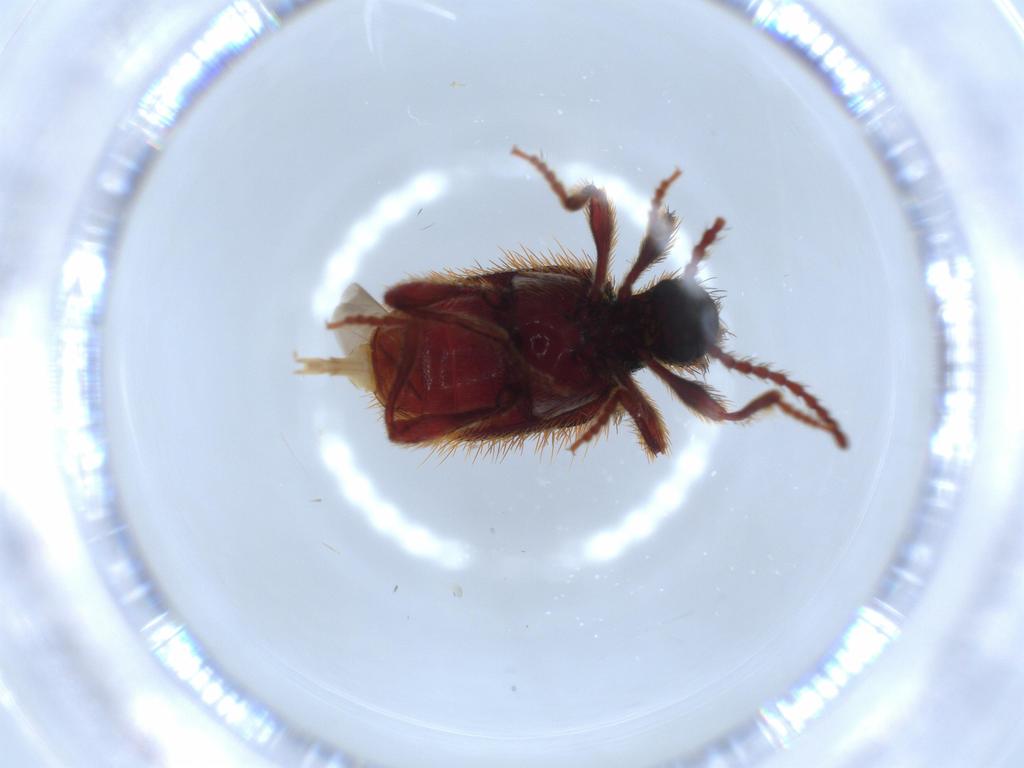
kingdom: Animalia
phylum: Arthropoda
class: Insecta
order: Coleoptera
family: Ptinidae
